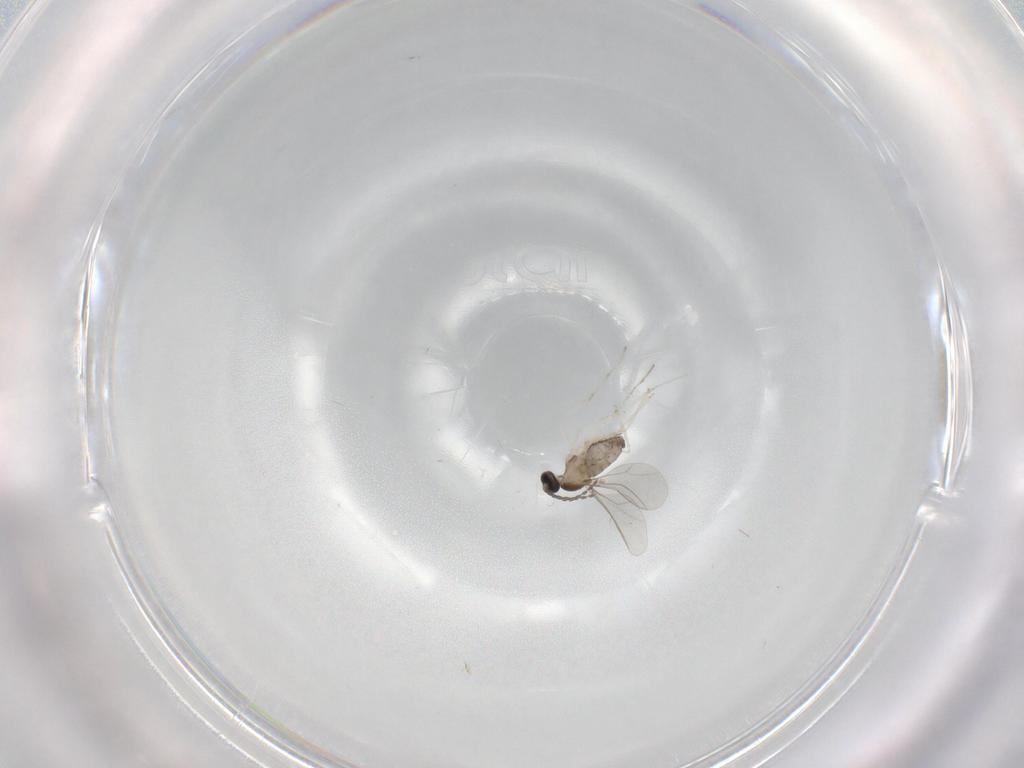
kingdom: Animalia
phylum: Arthropoda
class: Insecta
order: Diptera
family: Cecidomyiidae
